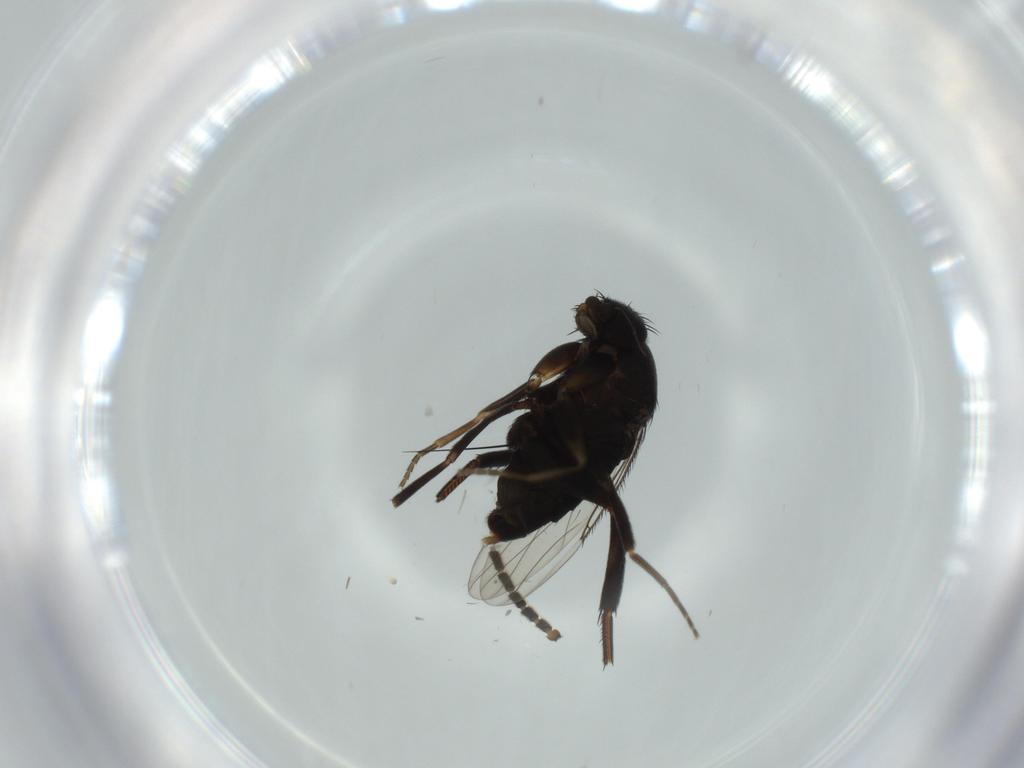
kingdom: Animalia
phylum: Arthropoda
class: Insecta
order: Diptera
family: Phoridae
